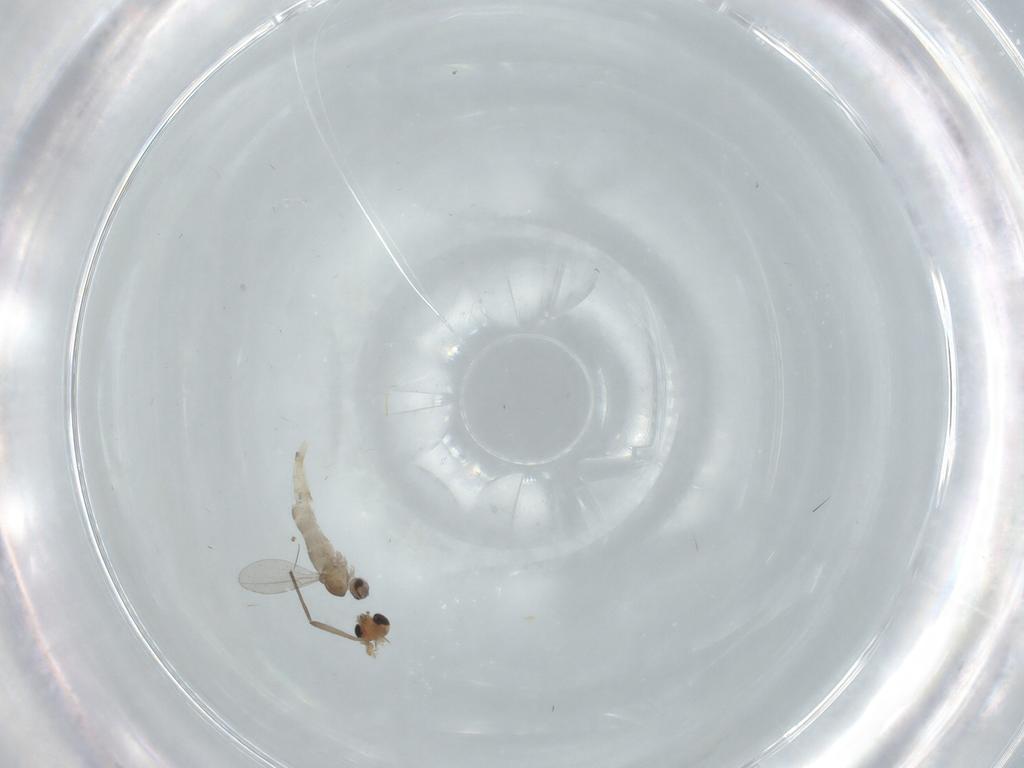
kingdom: Animalia
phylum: Arthropoda
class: Insecta
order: Diptera
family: Cecidomyiidae
